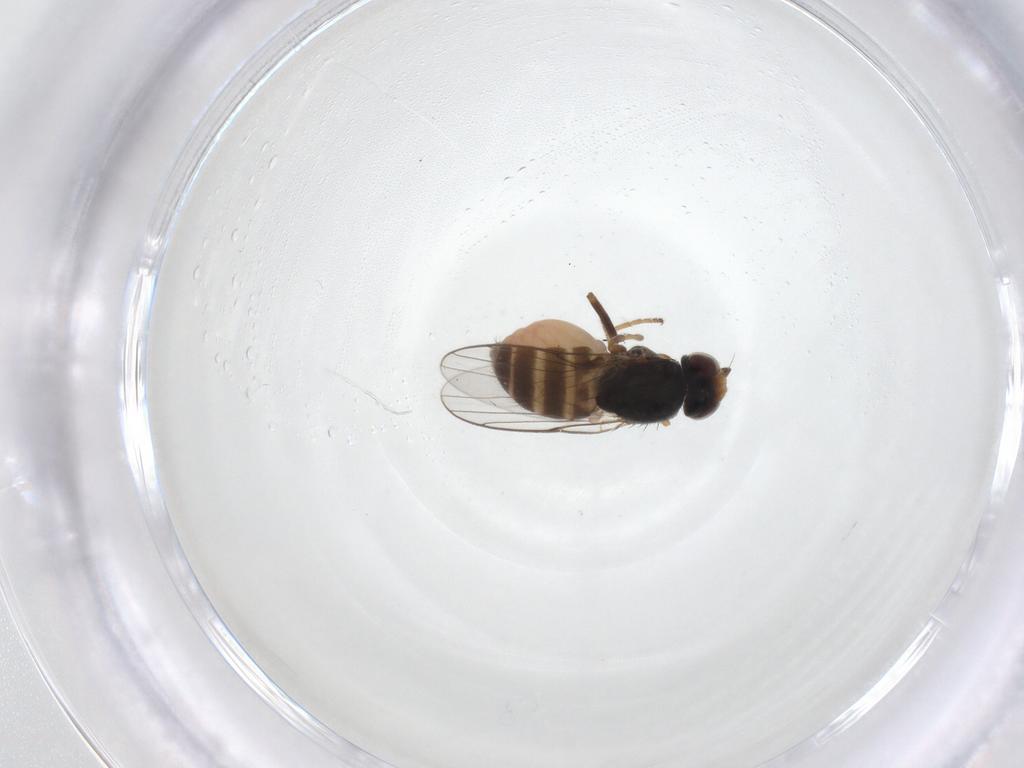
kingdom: Animalia
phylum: Arthropoda
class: Insecta
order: Diptera
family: Chloropidae
